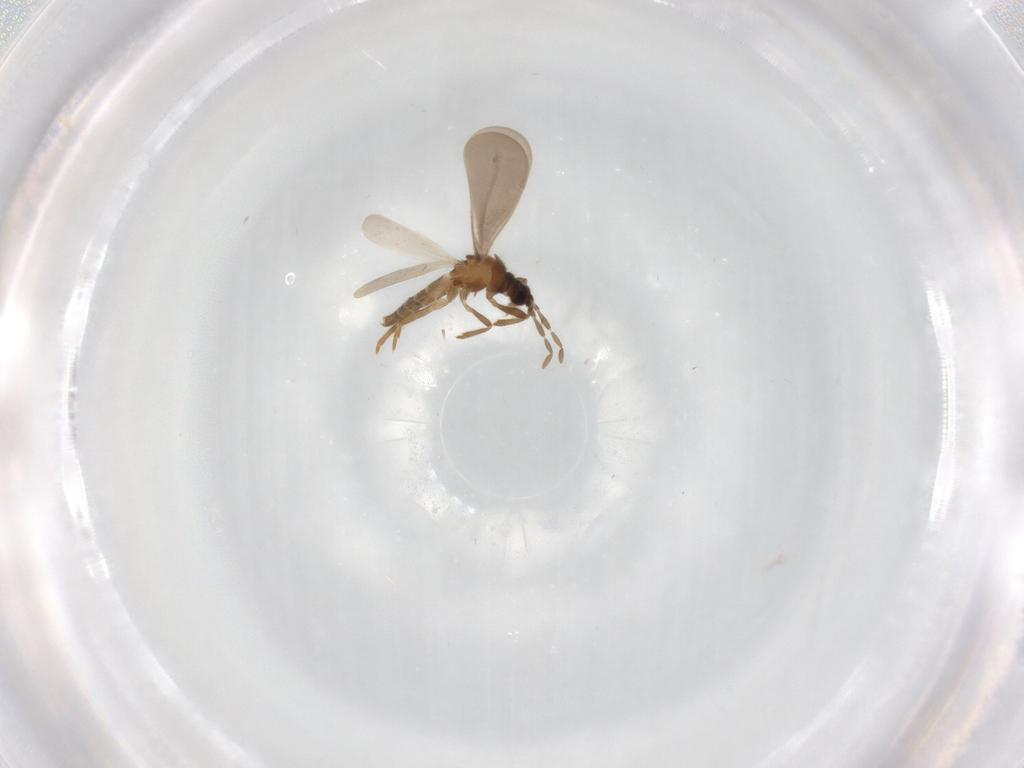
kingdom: Animalia
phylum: Arthropoda
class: Insecta
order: Hemiptera
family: Enicocephalidae
